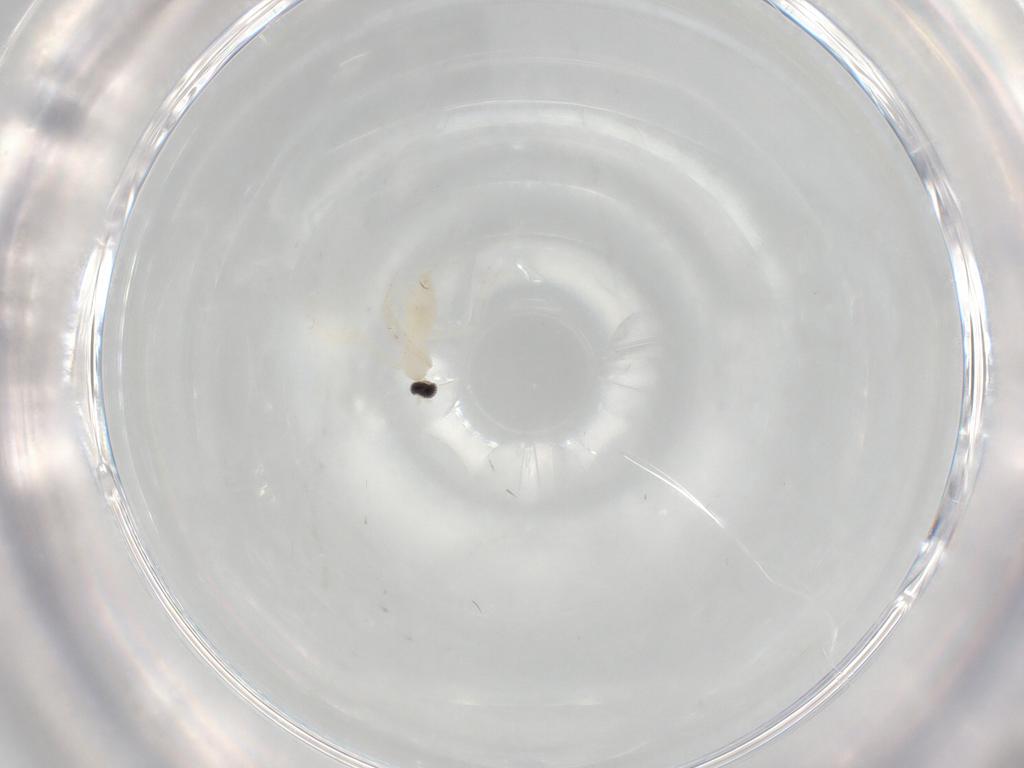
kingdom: Animalia
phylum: Arthropoda
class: Insecta
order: Diptera
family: Cecidomyiidae
